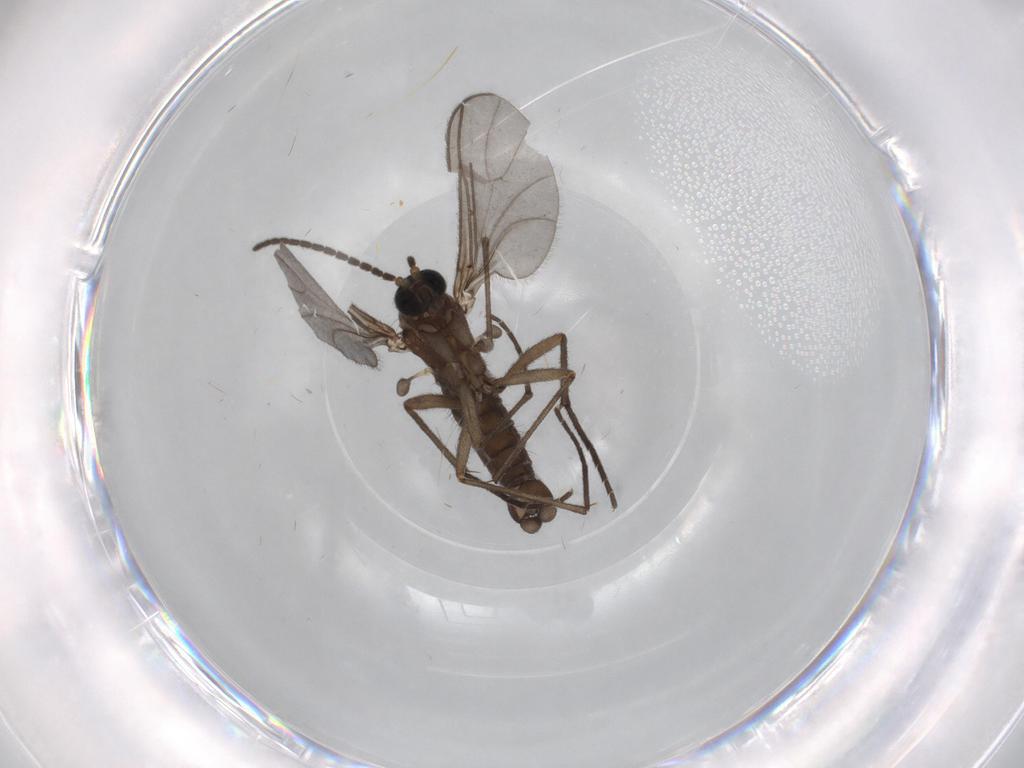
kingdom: Animalia
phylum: Arthropoda
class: Insecta
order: Diptera
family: Sciaridae
